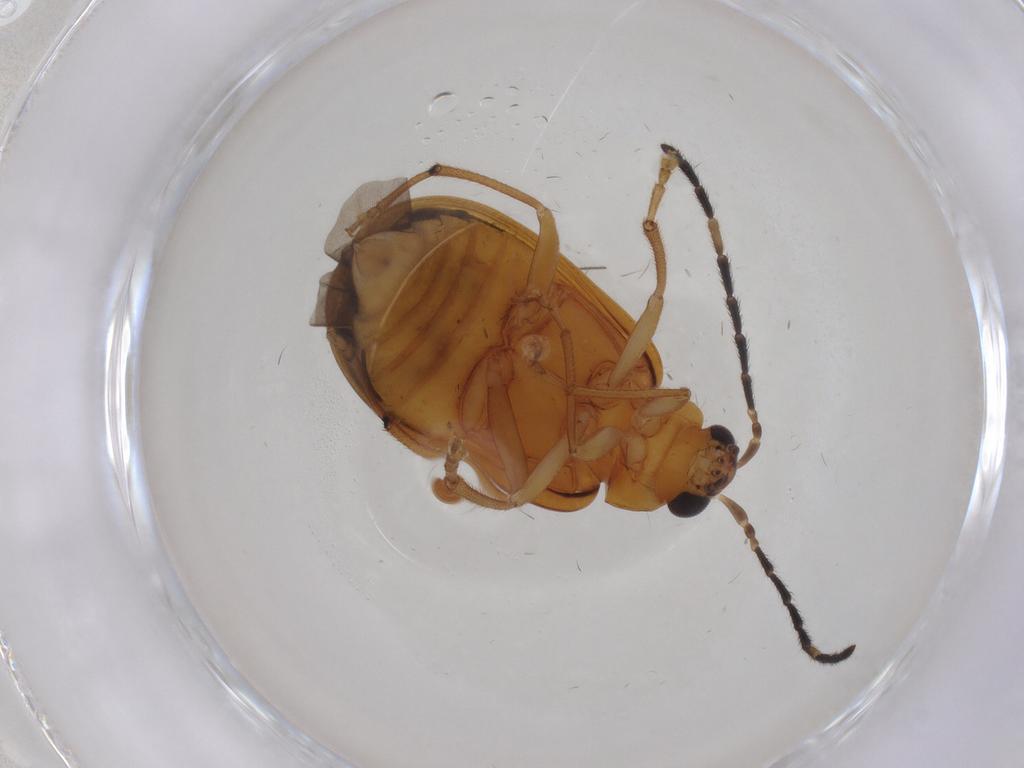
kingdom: Animalia
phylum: Arthropoda
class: Insecta
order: Coleoptera
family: Chrysomelidae
